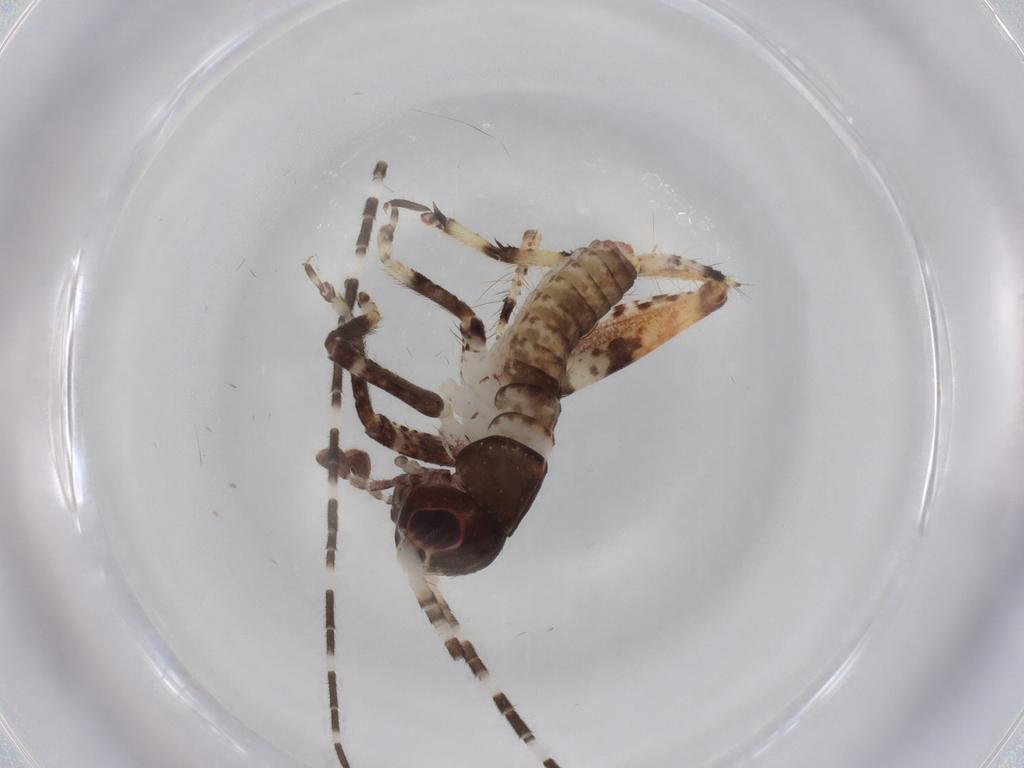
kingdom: Animalia
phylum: Arthropoda
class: Insecta
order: Orthoptera
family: Gryllidae
